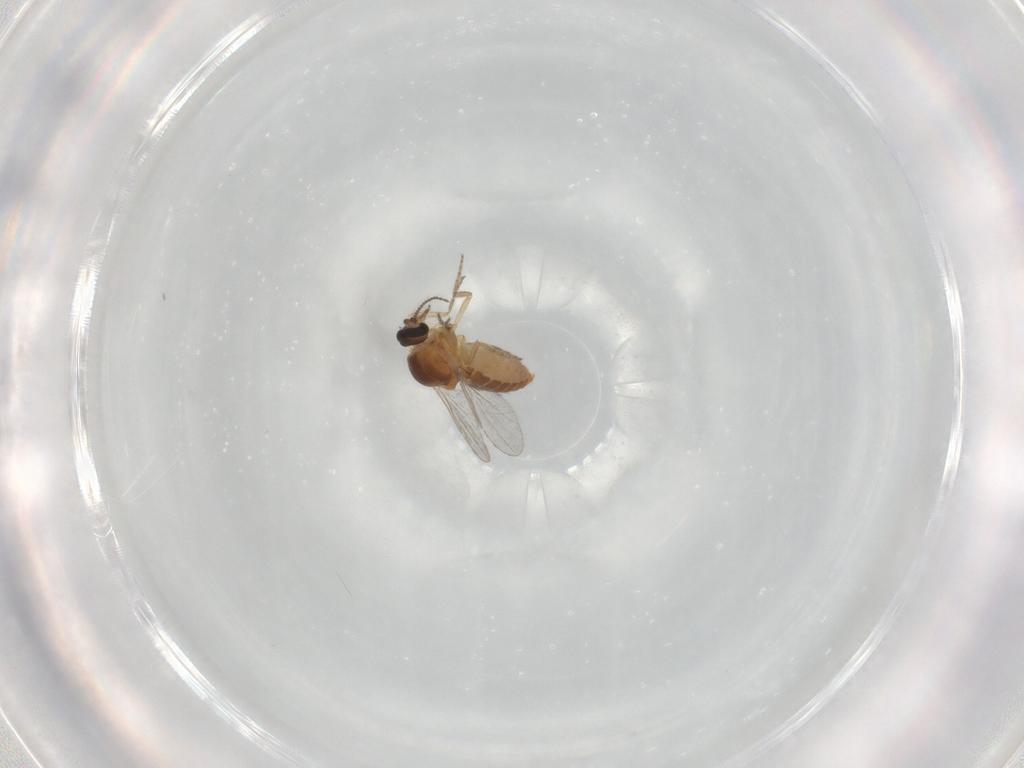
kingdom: Animalia
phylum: Arthropoda
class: Insecta
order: Diptera
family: Ceratopogonidae
